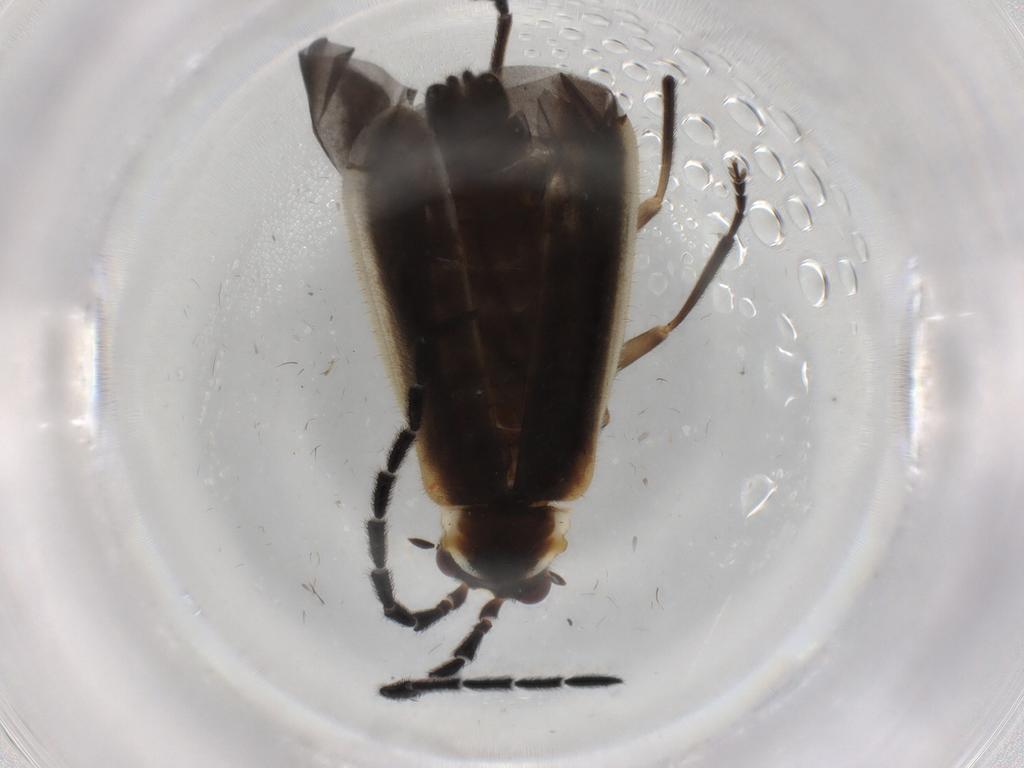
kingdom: Animalia
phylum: Arthropoda
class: Insecta
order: Coleoptera
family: Cantharidae
